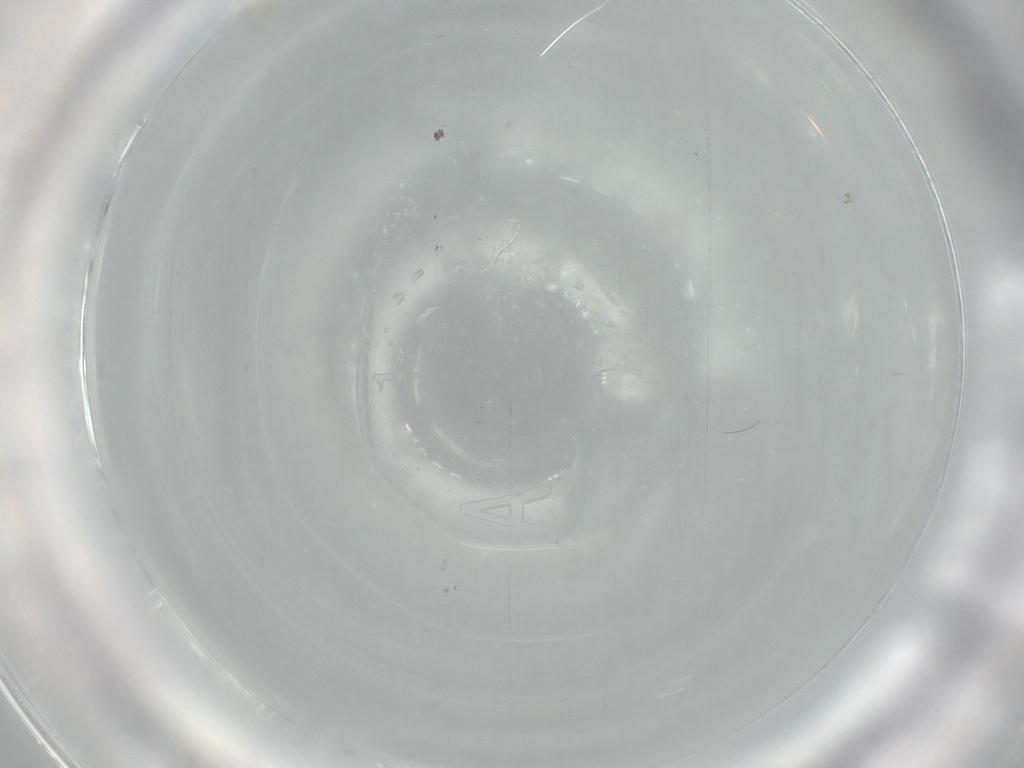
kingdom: Animalia
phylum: Arthropoda
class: Insecta
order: Hymenoptera
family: Mymaridae
